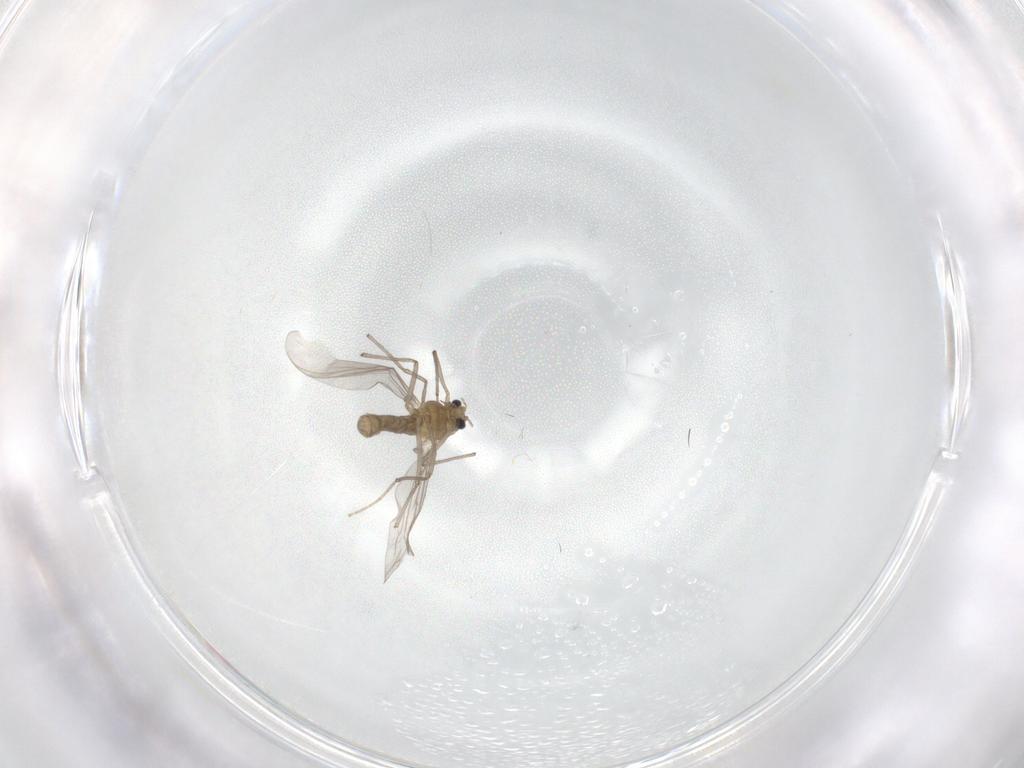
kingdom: Animalia
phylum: Arthropoda
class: Insecta
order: Diptera
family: Chironomidae
